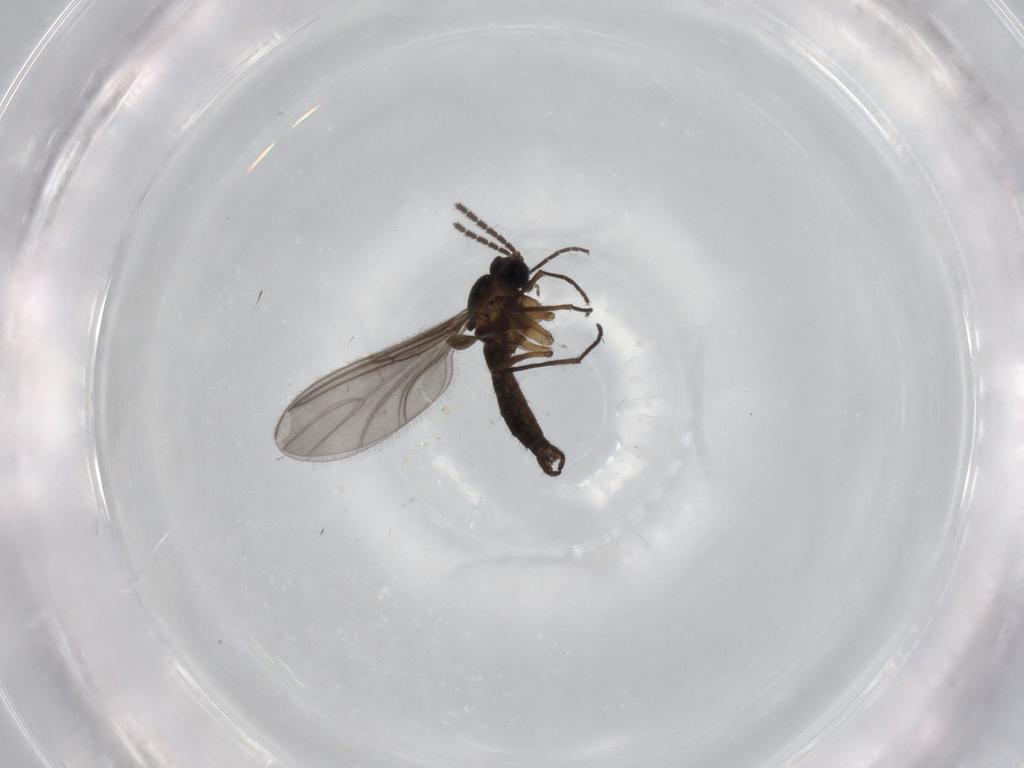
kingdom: Animalia
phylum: Arthropoda
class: Insecta
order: Diptera
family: Sciaridae
